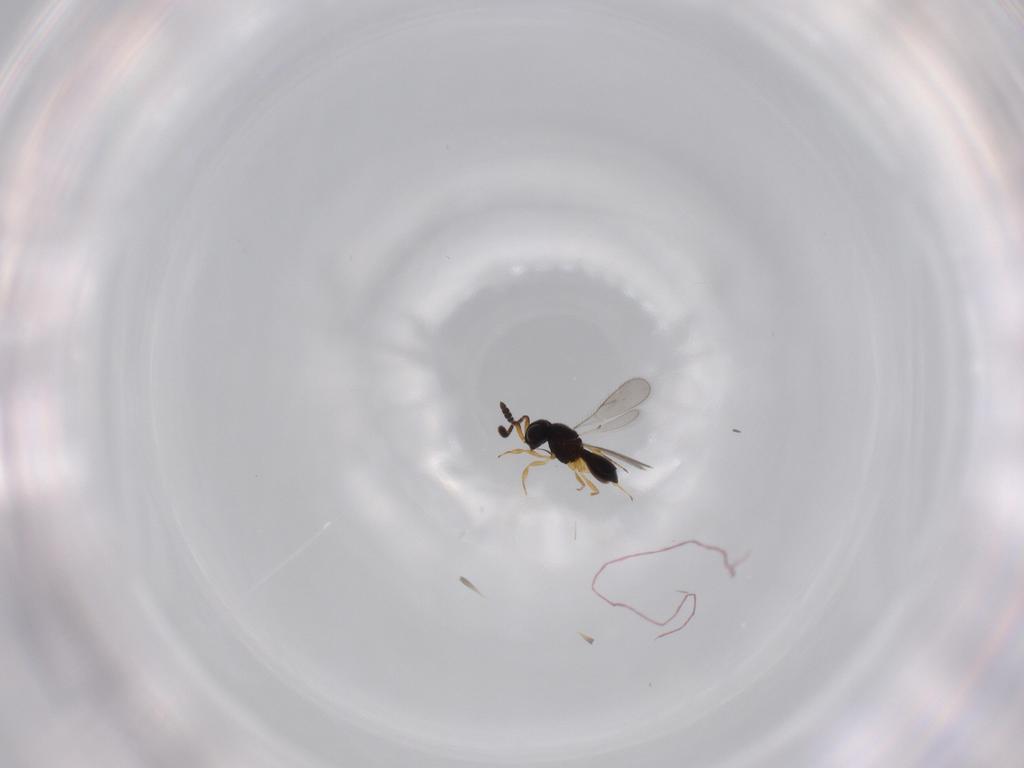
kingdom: Animalia
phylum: Arthropoda
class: Insecta
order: Hymenoptera
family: Scelionidae
